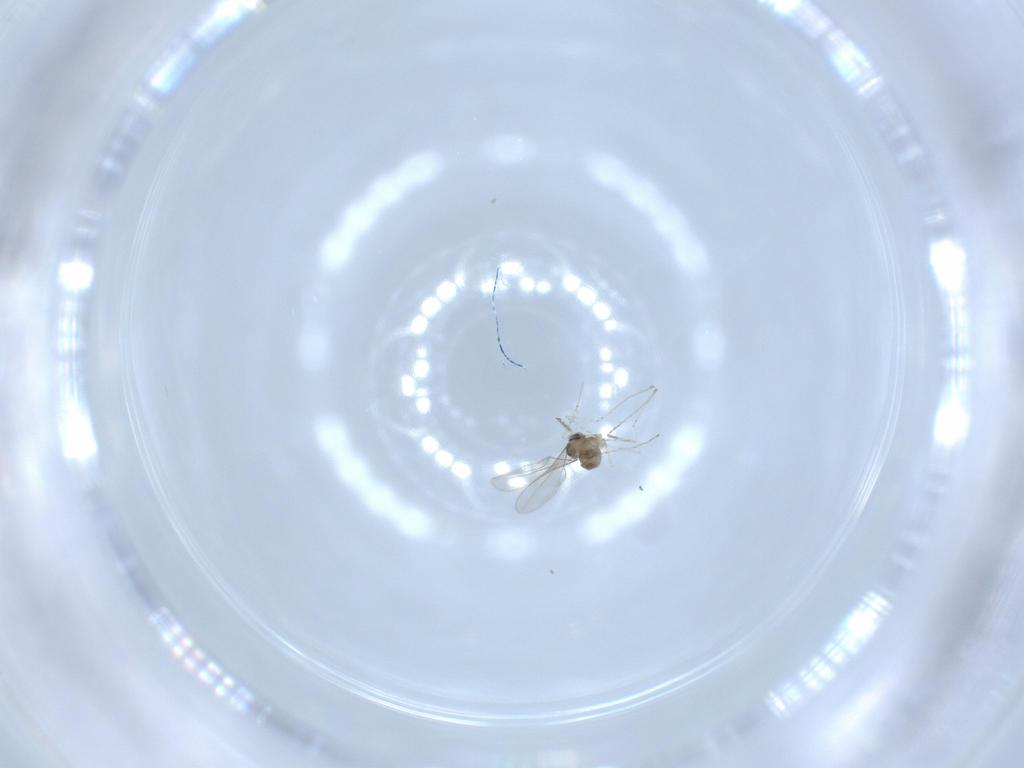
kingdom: Animalia
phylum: Arthropoda
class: Insecta
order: Diptera
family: Cecidomyiidae
